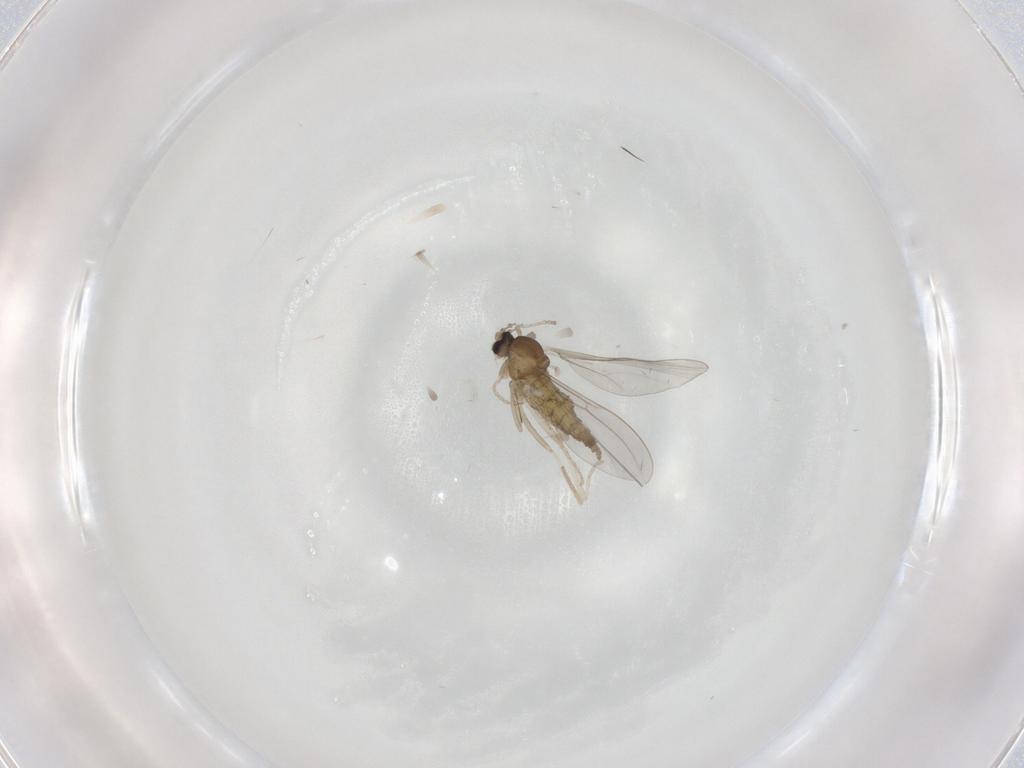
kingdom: Animalia
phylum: Arthropoda
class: Insecta
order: Diptera
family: Cecidomyiidae
